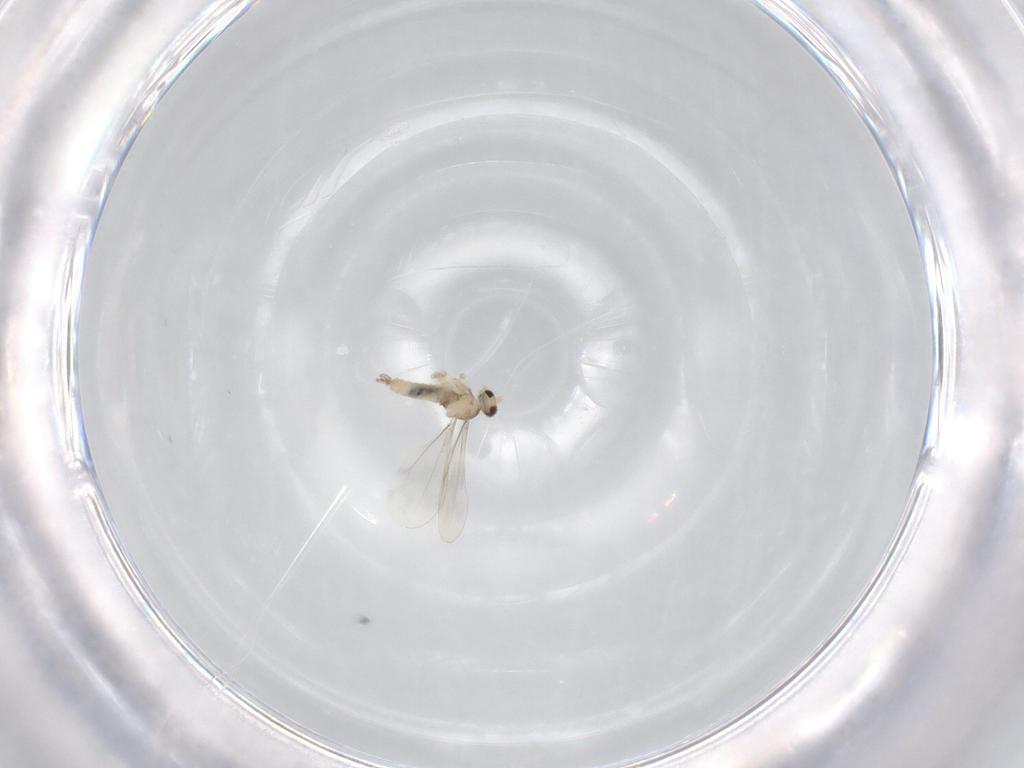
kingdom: Animalia
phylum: Arthropoda
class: Insecta
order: Diptera
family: Cecidomyiidae
